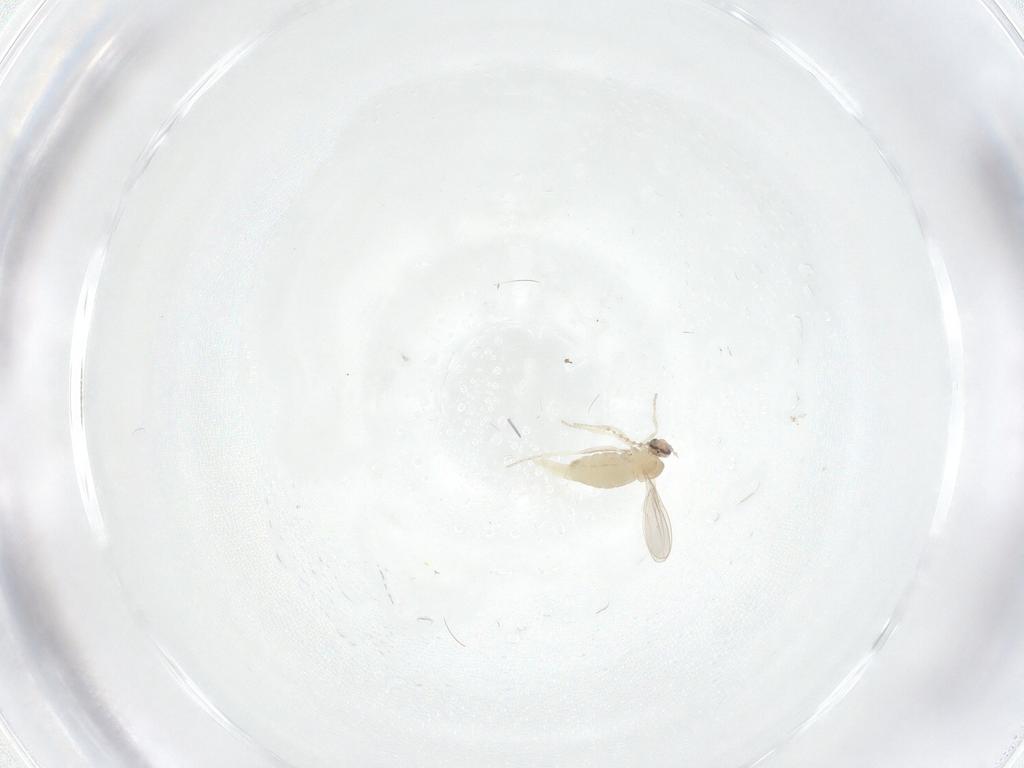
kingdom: Animalia
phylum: Arthropoda
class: Insecta
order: Diptera
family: Cecidomyiidae
